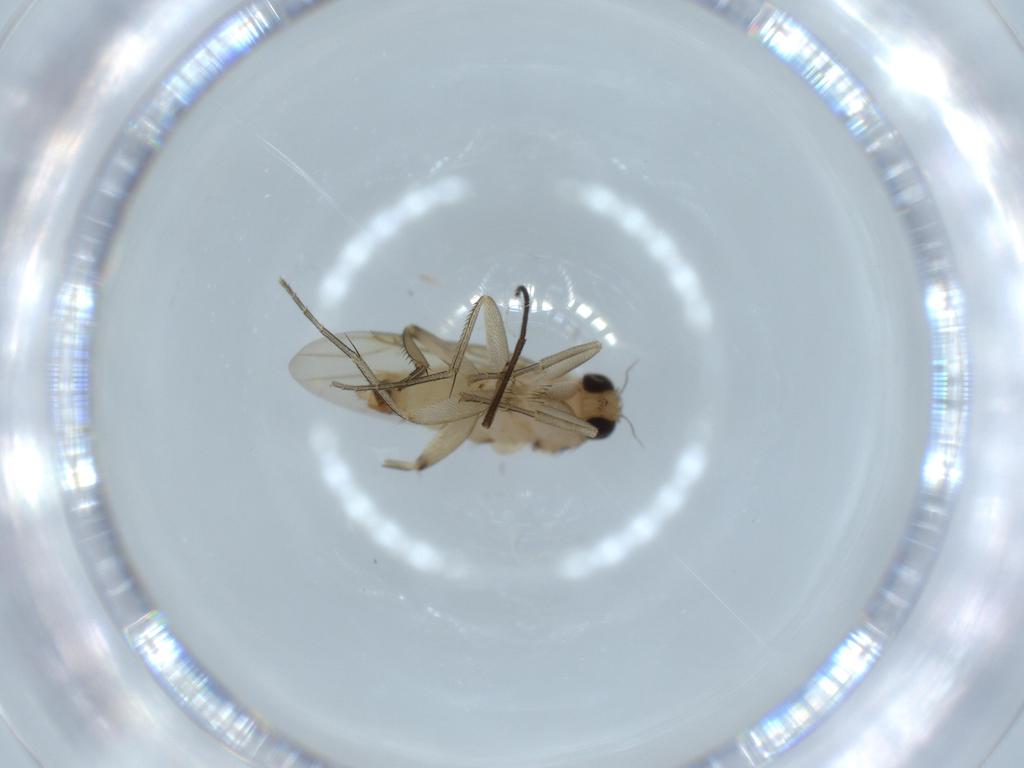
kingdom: Animalia
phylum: Arthropoda
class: Insecta
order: Diptera
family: Phoridae
